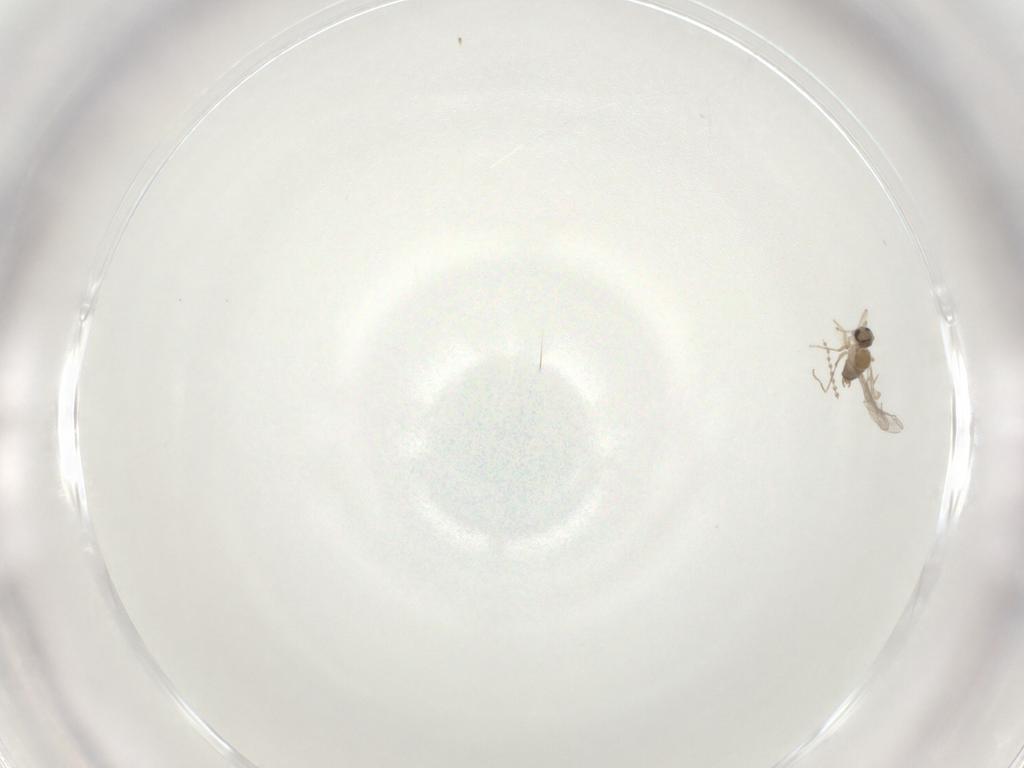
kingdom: Animalia
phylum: Arthropoda
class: Insecta
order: Diptera
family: Cecidomyiidae
